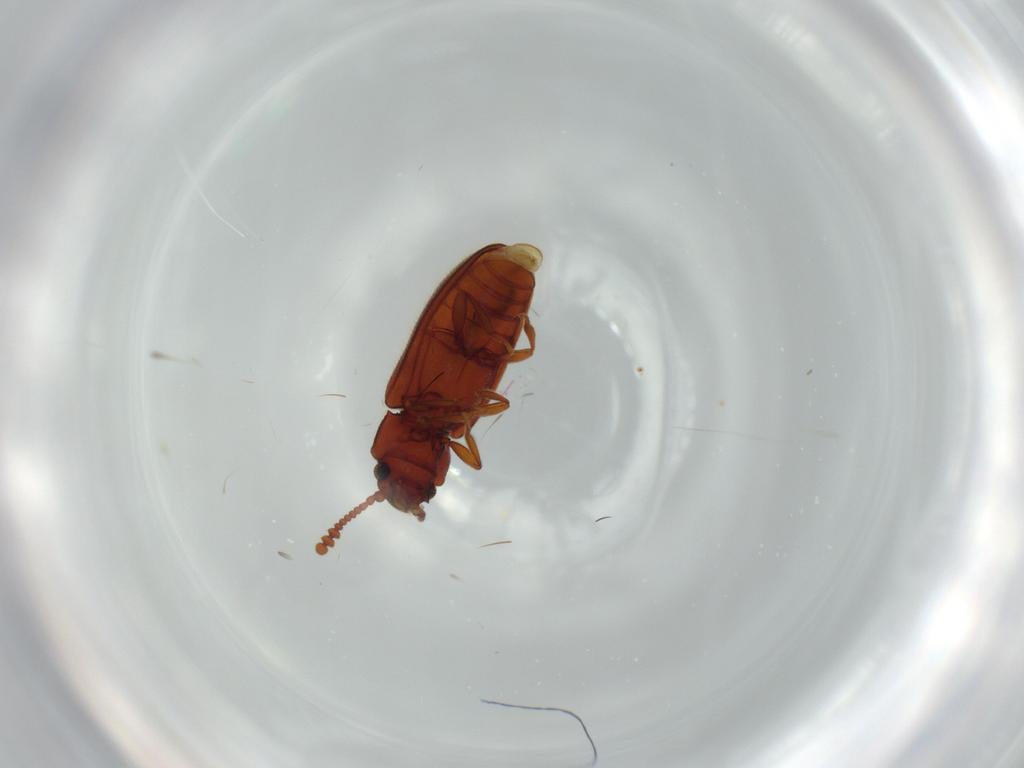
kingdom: Animalia
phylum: Arthropoda
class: Insecta
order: Coleoptera
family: Erotylidae
